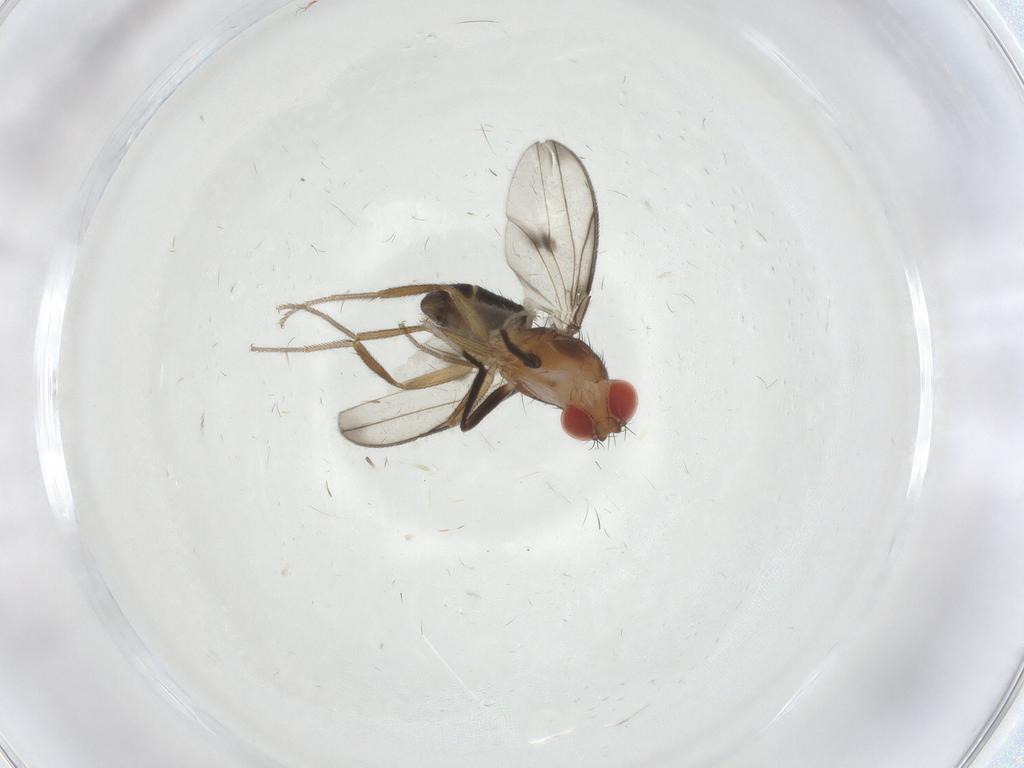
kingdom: Animalia
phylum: Arthropoda
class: Insecta
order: Diptera
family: Drosophilidae
